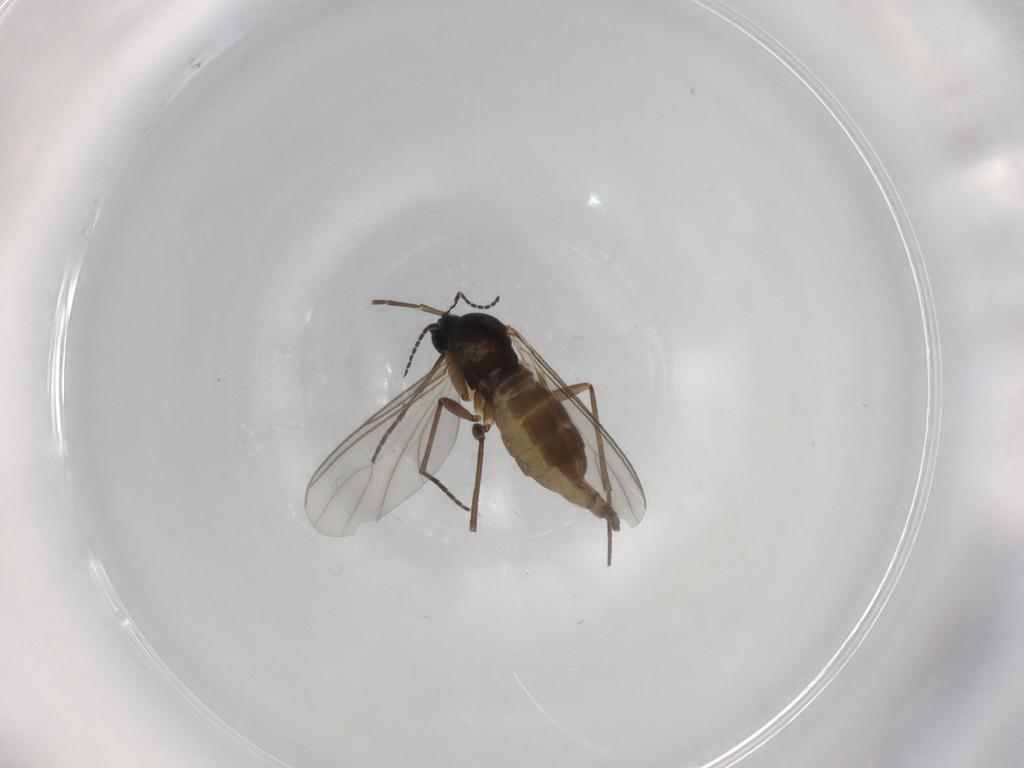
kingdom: Animalia
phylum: Arthropoda
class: Insecta
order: Diptera
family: Sciaridae
